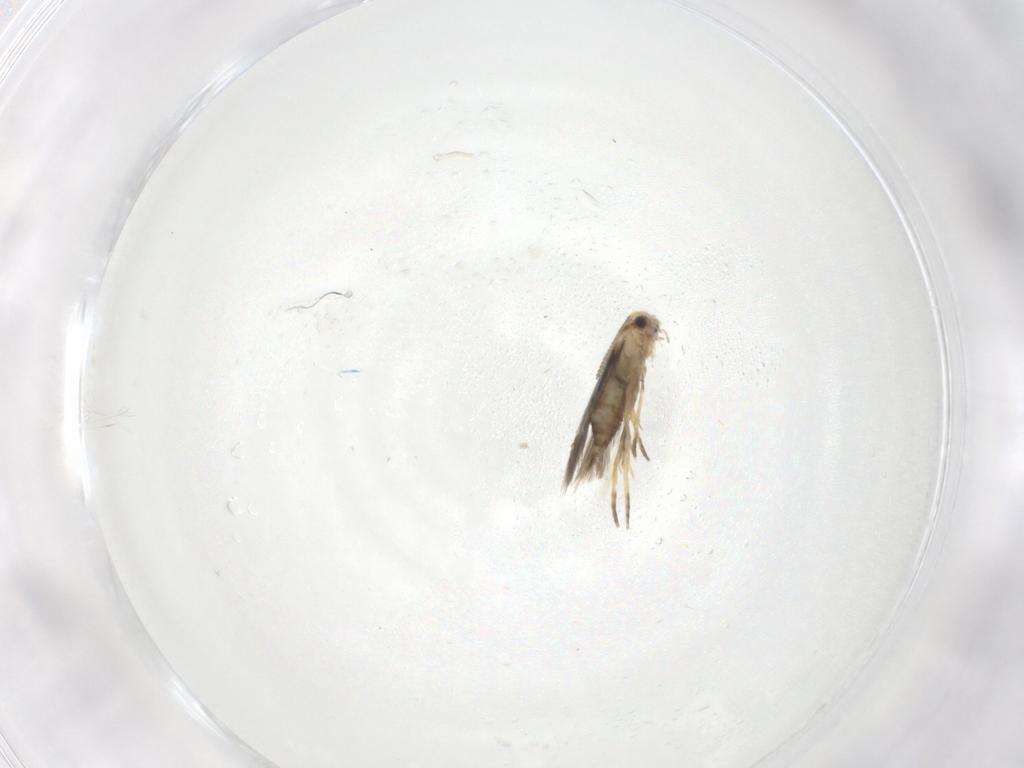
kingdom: Animalia
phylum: Arthropoda
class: Insecta
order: Lepidoptera
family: Nepticulidae
